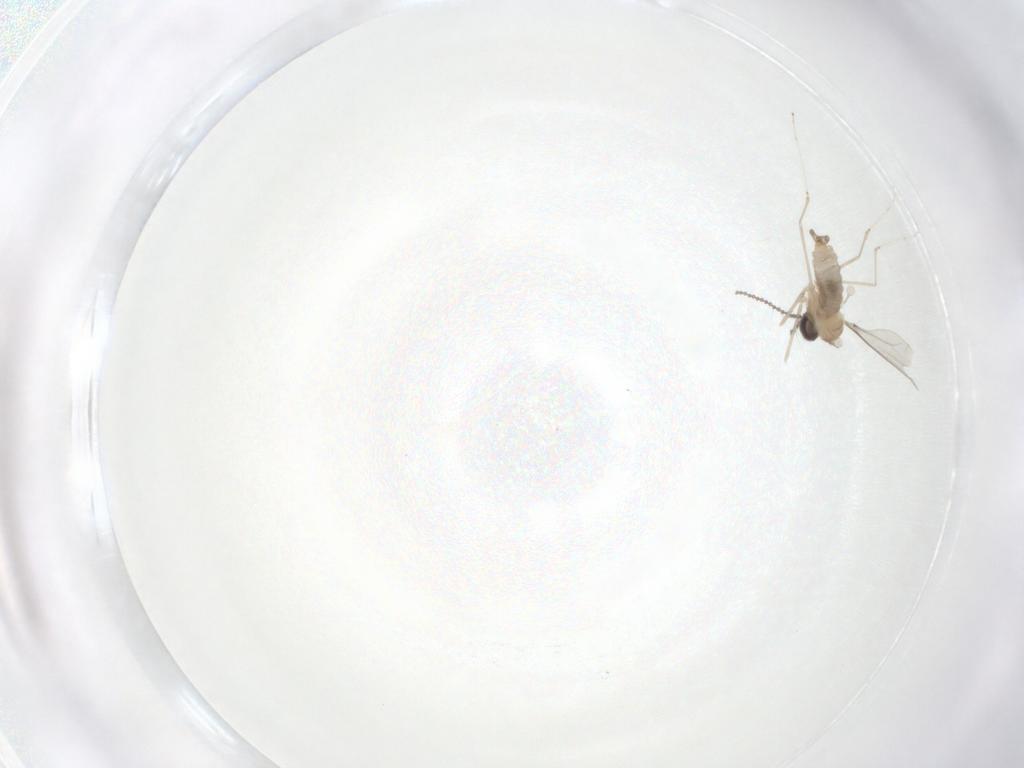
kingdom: Animalia
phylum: Arthropoda
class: Insecta
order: Diptera
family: Cecidomyiidae
